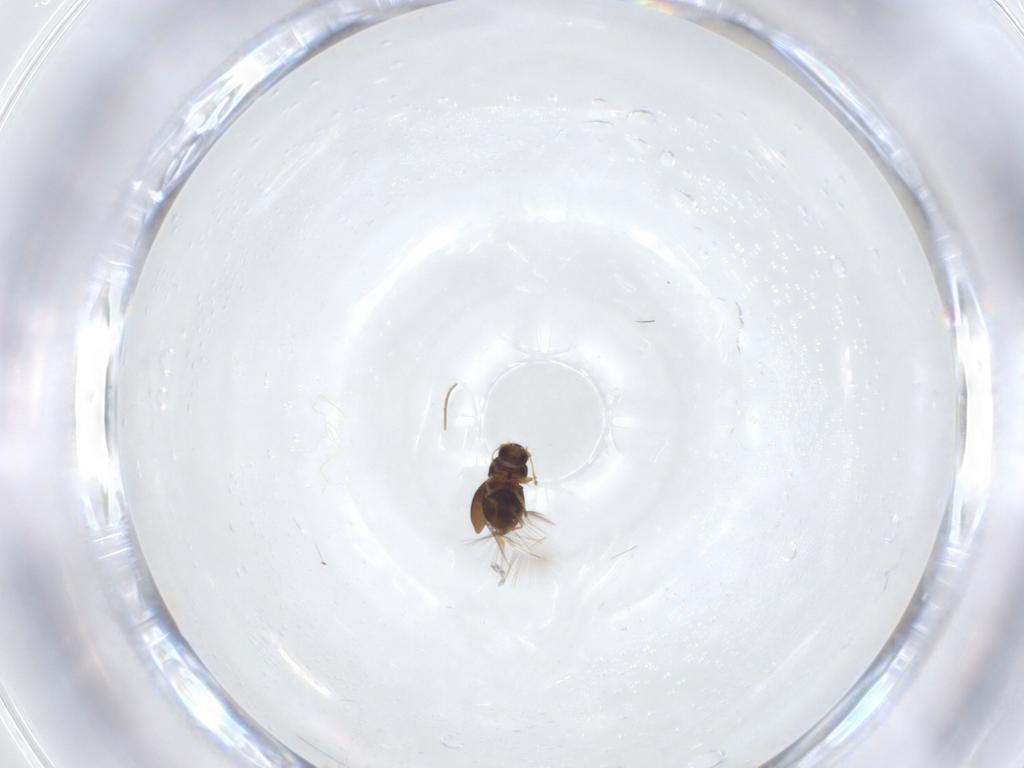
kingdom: Animalia
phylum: Arthropoda
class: Insecta
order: Coleoptera
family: Ptiliidae
